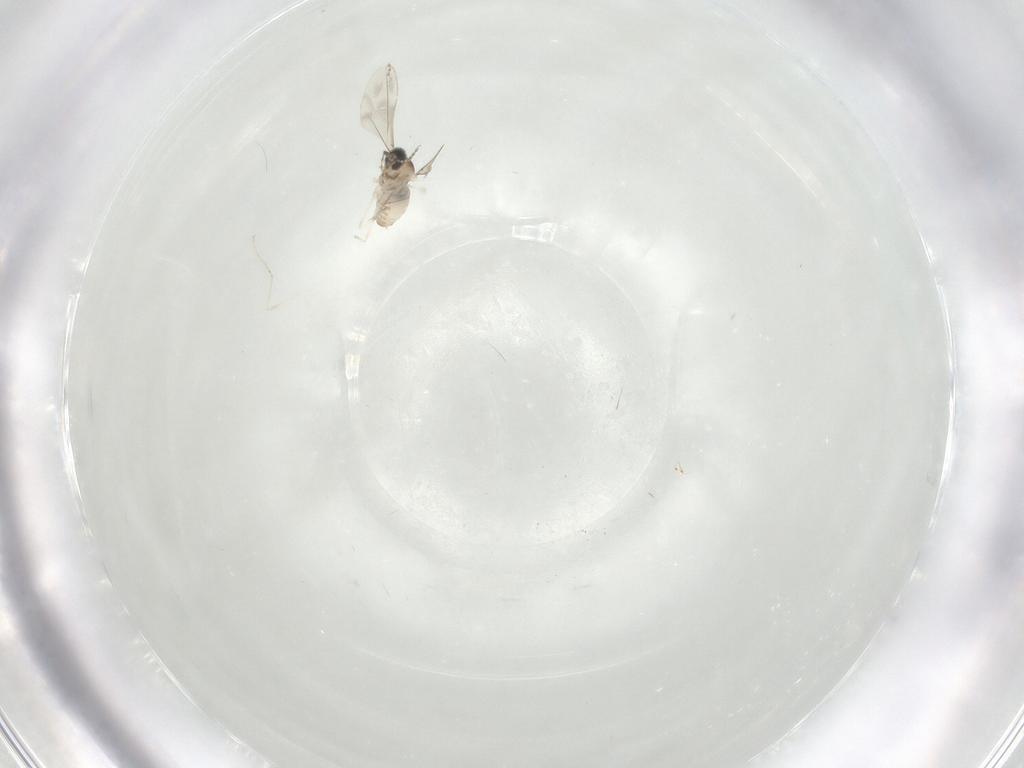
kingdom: Animalia
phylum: Arthropoda
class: Insecta
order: Diptera
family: Cecidomyiidae
